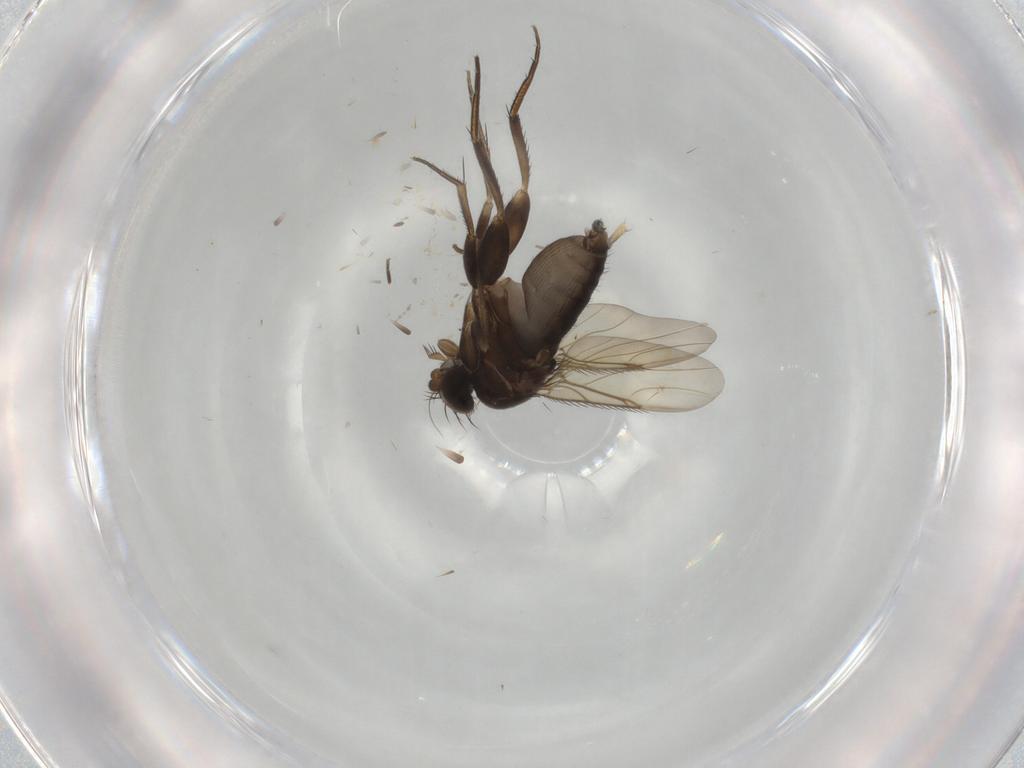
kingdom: Animalia
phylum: Arthropoda
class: Insecta
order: Diptera
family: Phoridae
